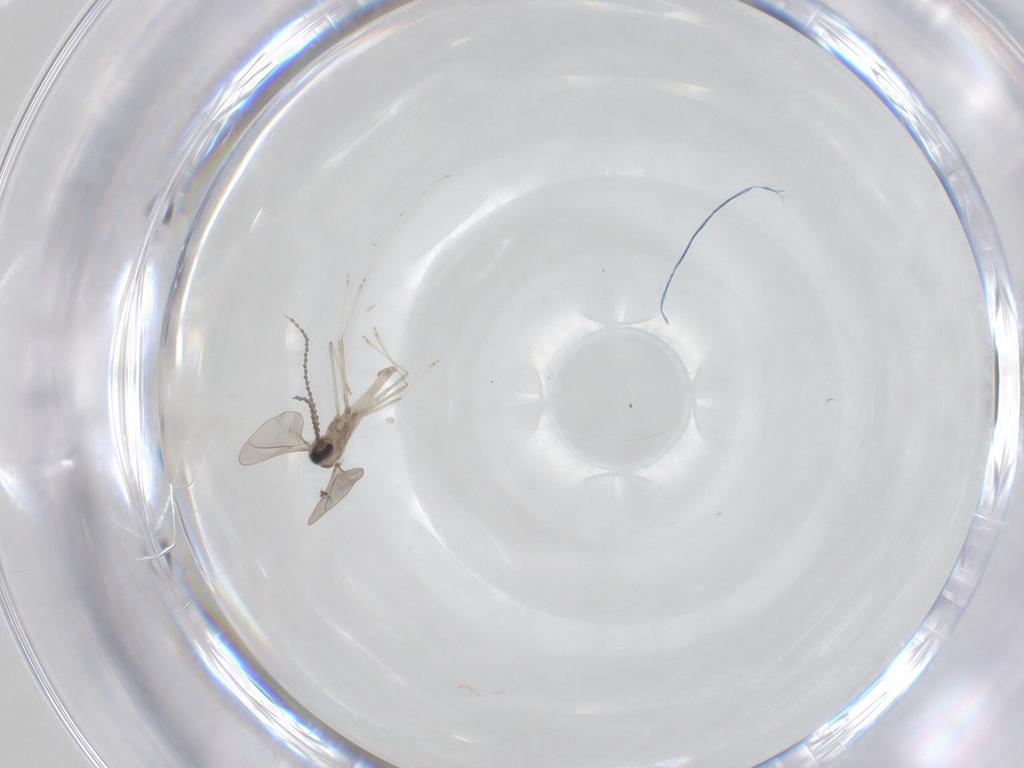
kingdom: Animalia
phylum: Arthropoda
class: Insecta
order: Diptera
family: Cecidomyiidae
